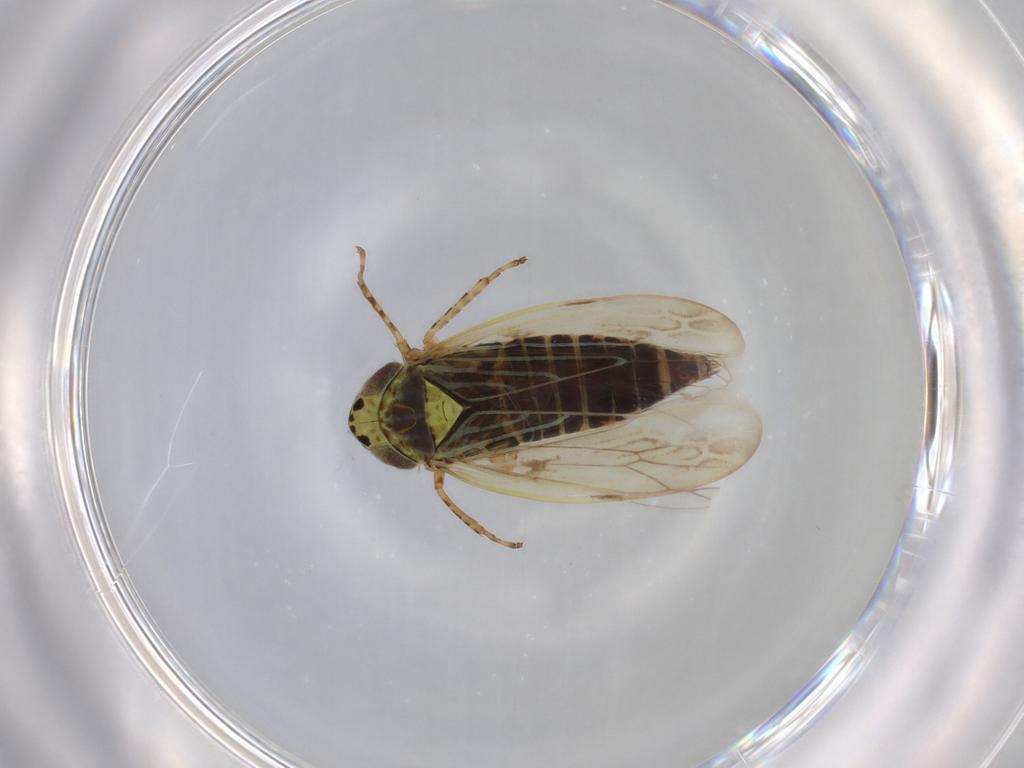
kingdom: Animalia
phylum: Arthropoda
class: Insecta
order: Hemiptera
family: Cicadellidae
